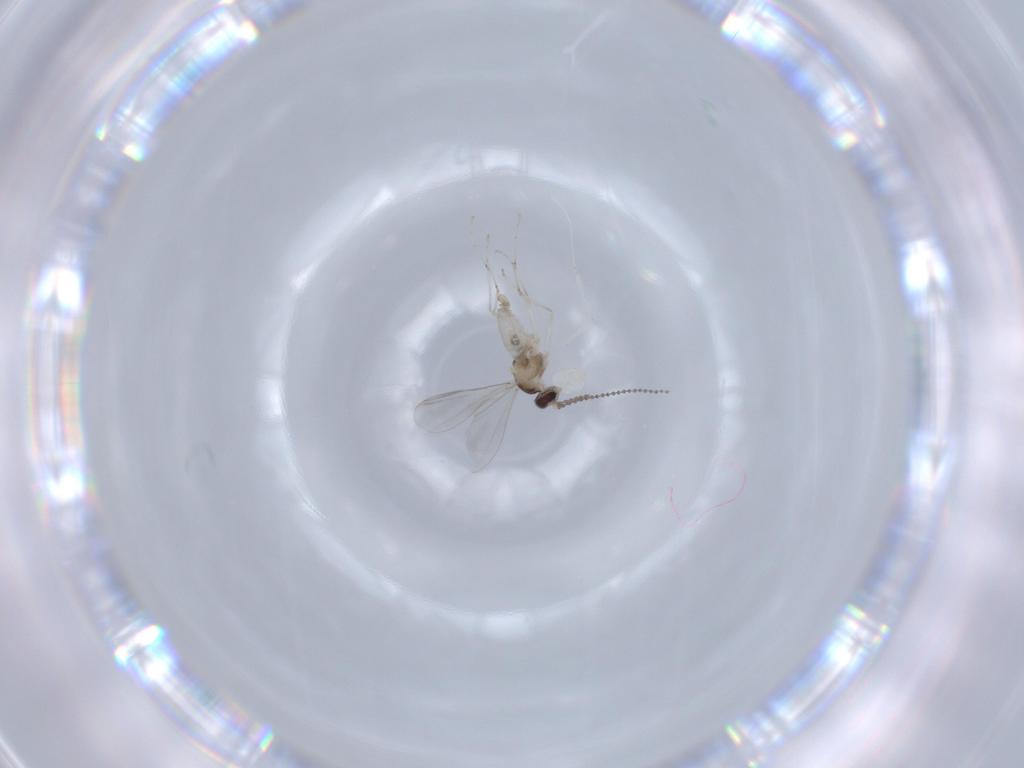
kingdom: Animalia
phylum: Arthropoda
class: Insecta
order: Diptera
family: Cecidomyiidae
